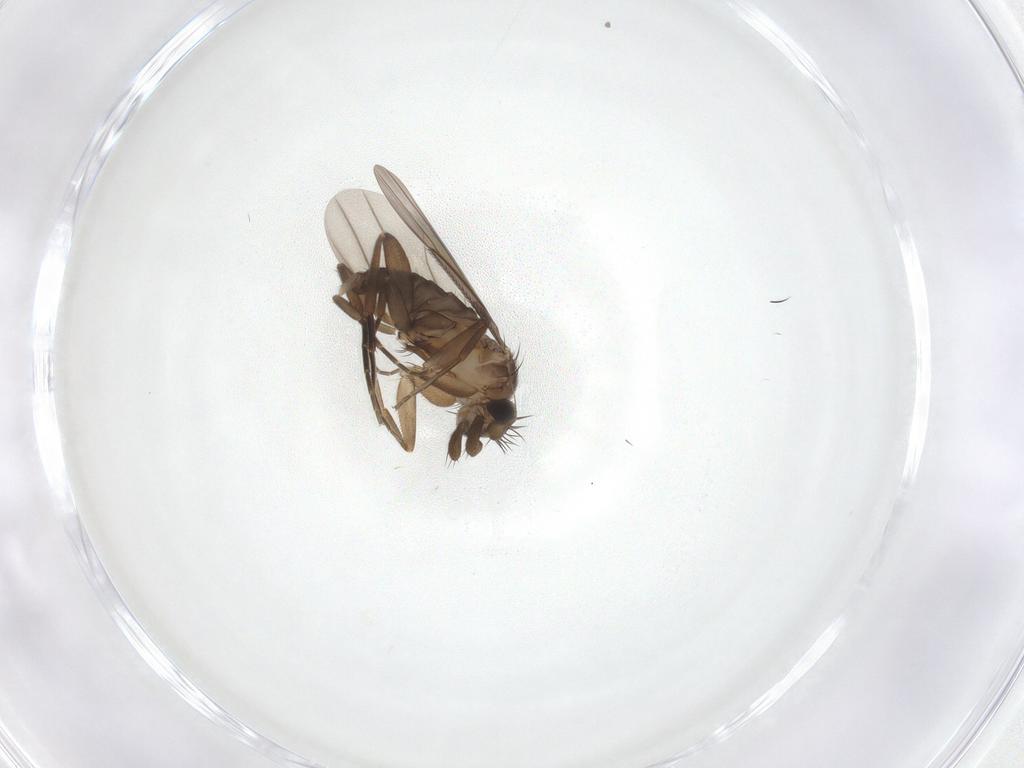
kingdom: Animalia
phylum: Arthropoda
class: Insecta
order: Diptera
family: Phoridae
